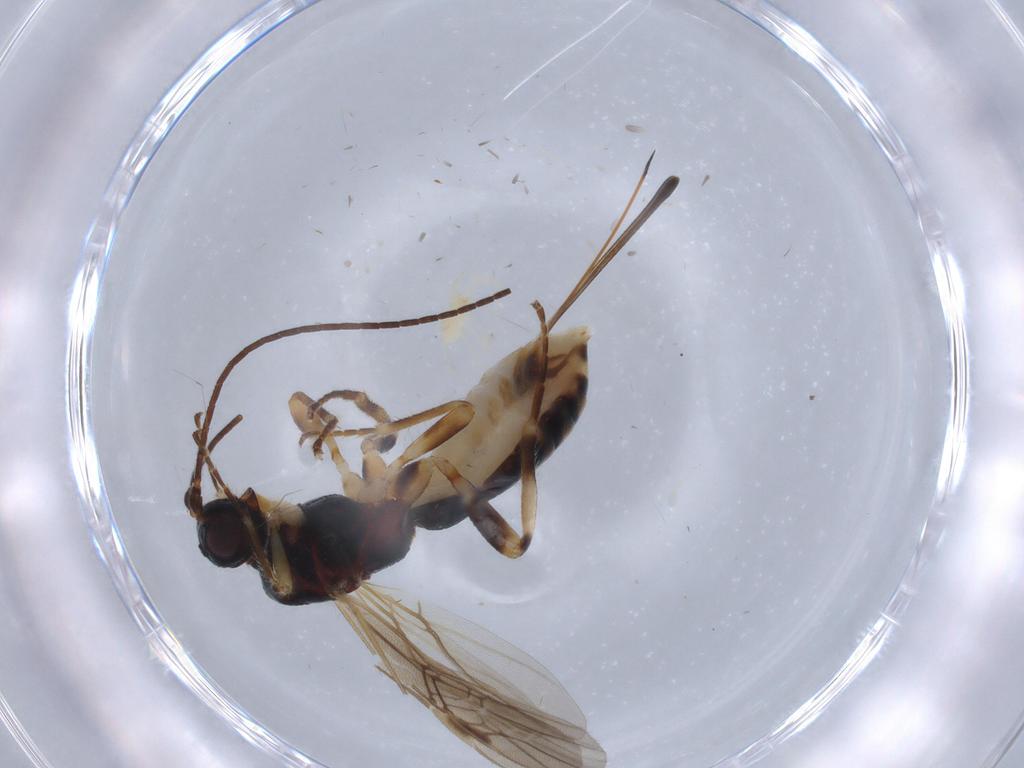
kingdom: Animalia
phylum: Arthropoda
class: Insecta
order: Hymenoptera
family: Braconidae
